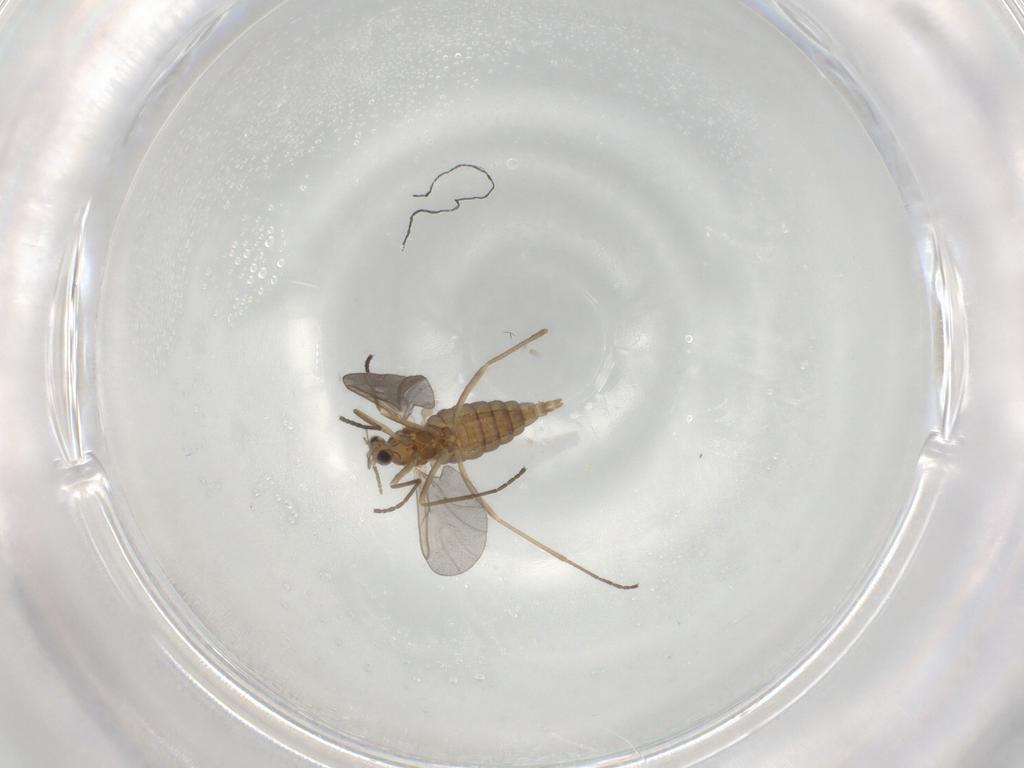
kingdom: Animalia
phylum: Arthropoda
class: Insecta
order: Diptera
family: Cecidomyiidae
